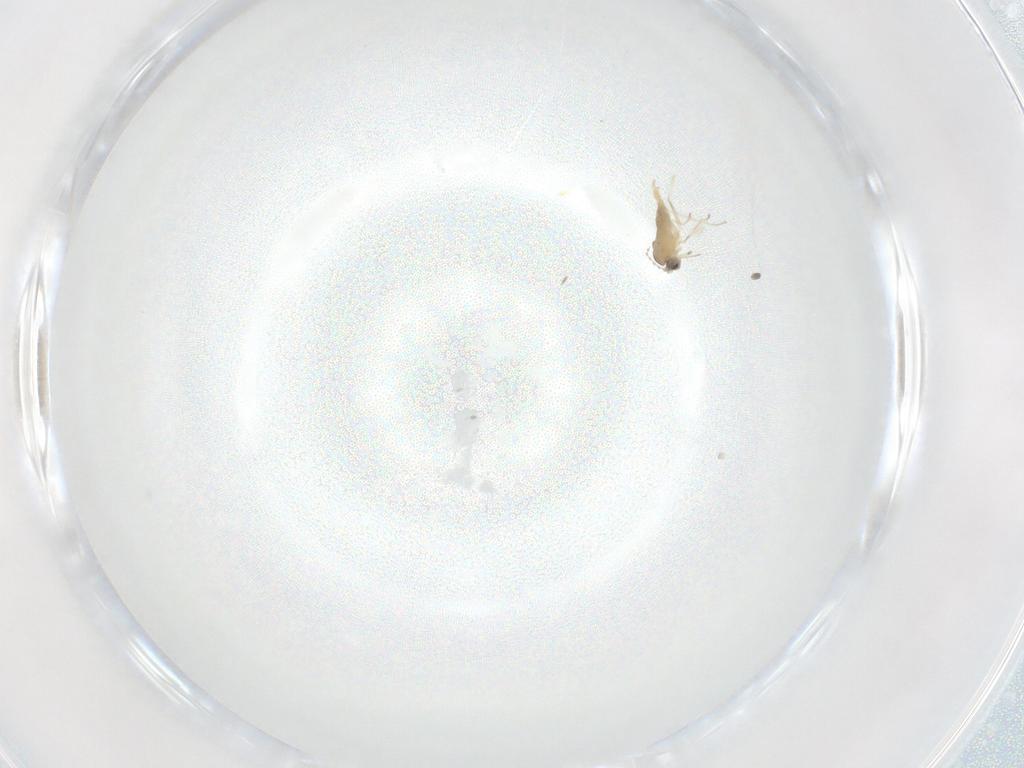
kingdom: Animalia
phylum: Arthropoda
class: Insecta
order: Diptera
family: Cecidomyiidae
